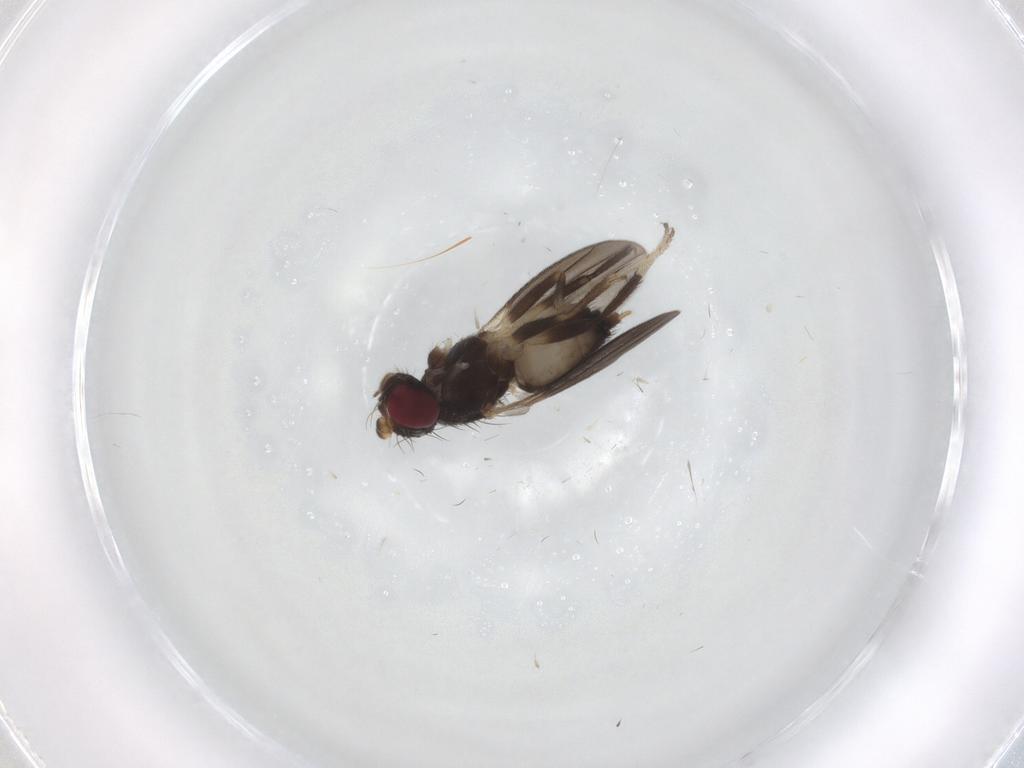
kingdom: Animalia
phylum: Arthropoda
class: Insecta
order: Diptera
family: Clusiidae
